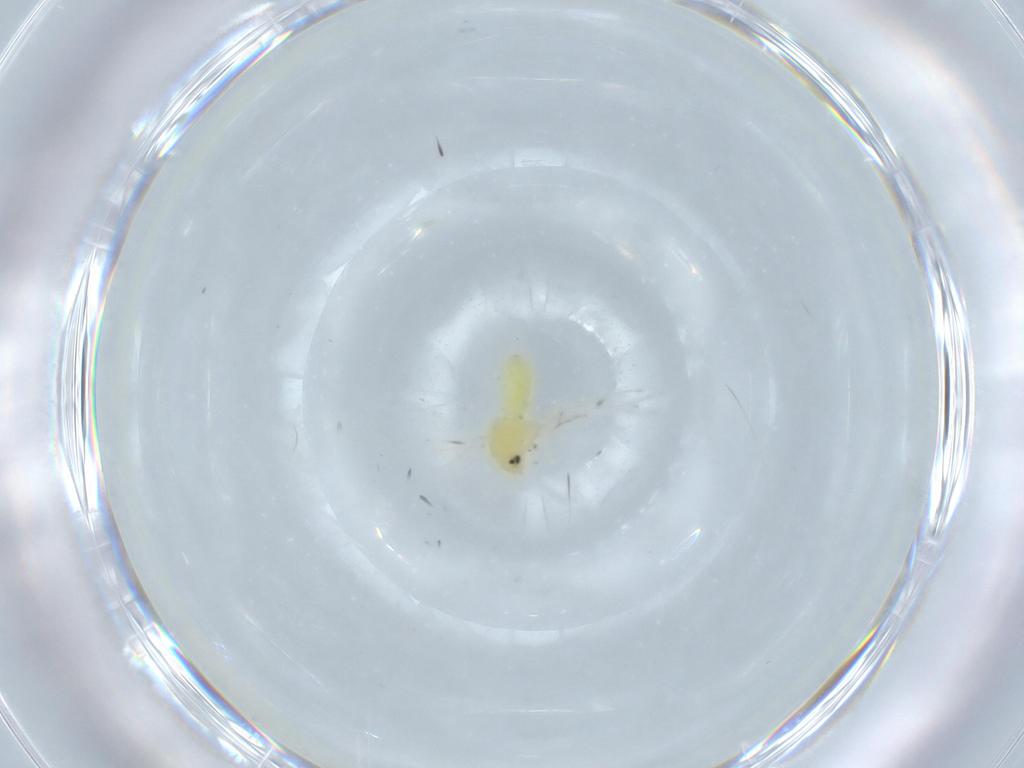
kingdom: Animalia
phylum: Arthropoda
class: Insecta
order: Hemiptera
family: Aleyrodidae
